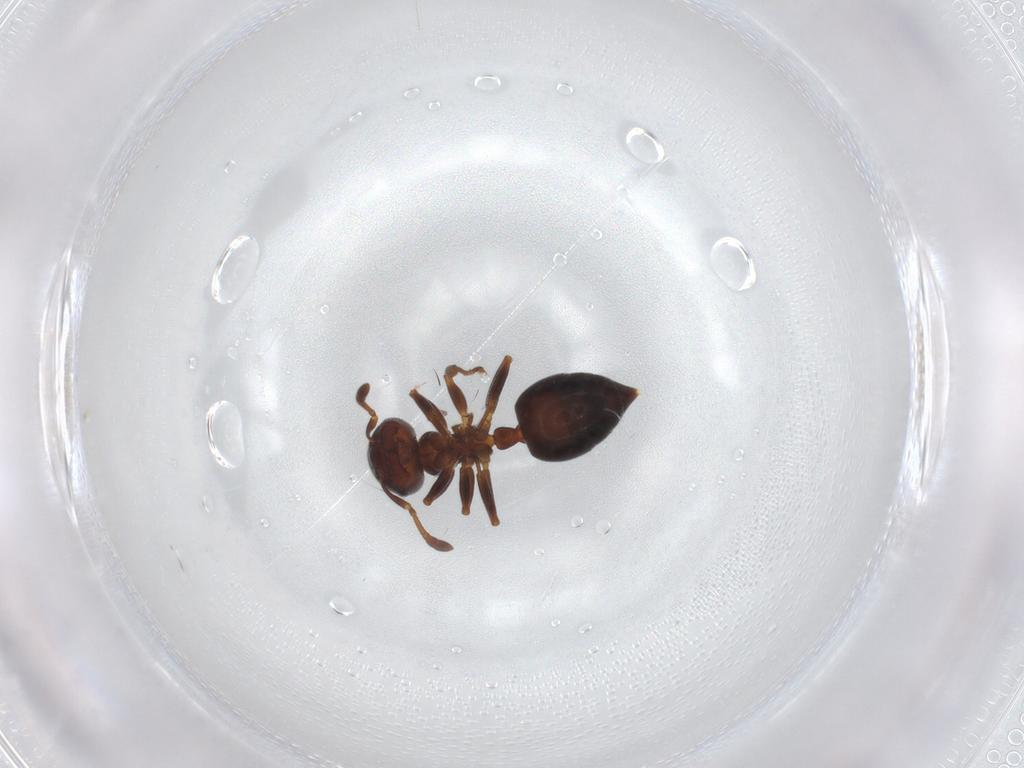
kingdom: Animalia
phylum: Arthropoda
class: Insecta
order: Hymenoptera
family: Formicidae
